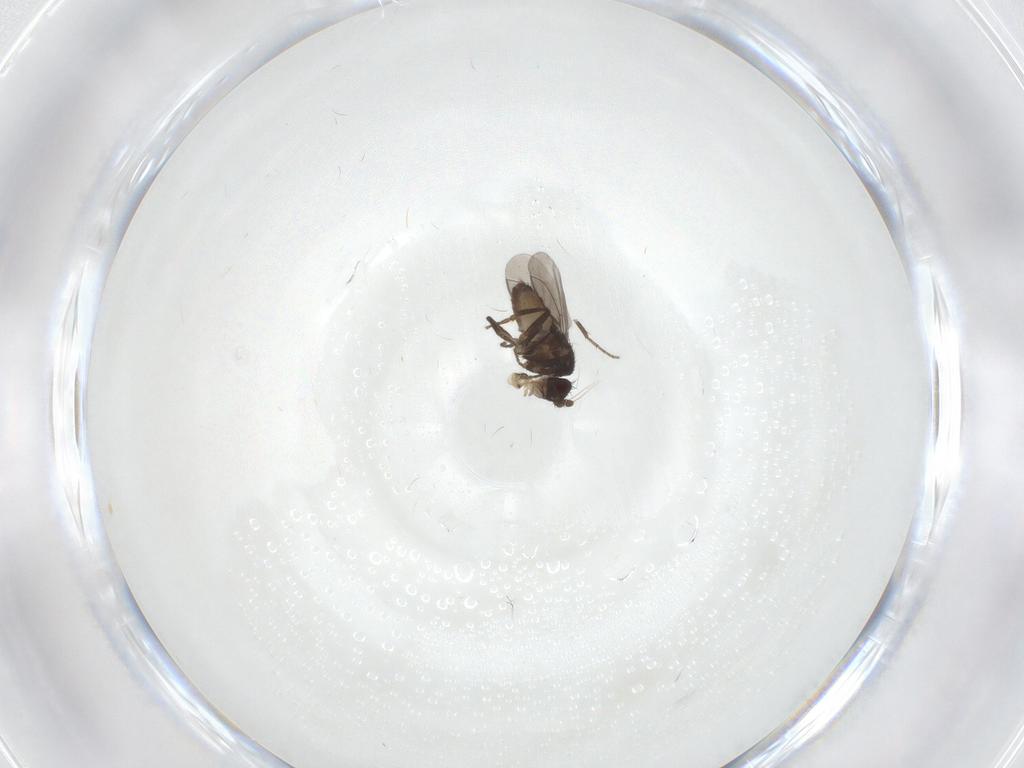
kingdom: Animalia
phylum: Arthropoda
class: Insecta
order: Diptera
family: Sphaeroceridae
